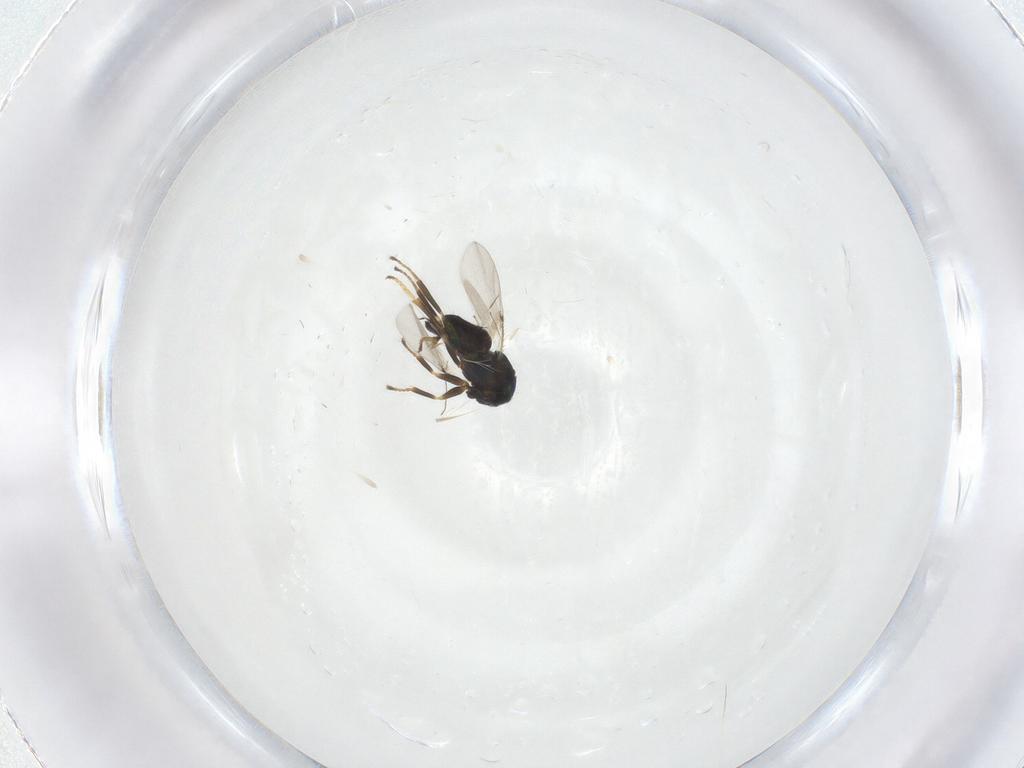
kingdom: Animalia
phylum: Arthropoda
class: Insecta
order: Hymenoptera
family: Encyrtidae
